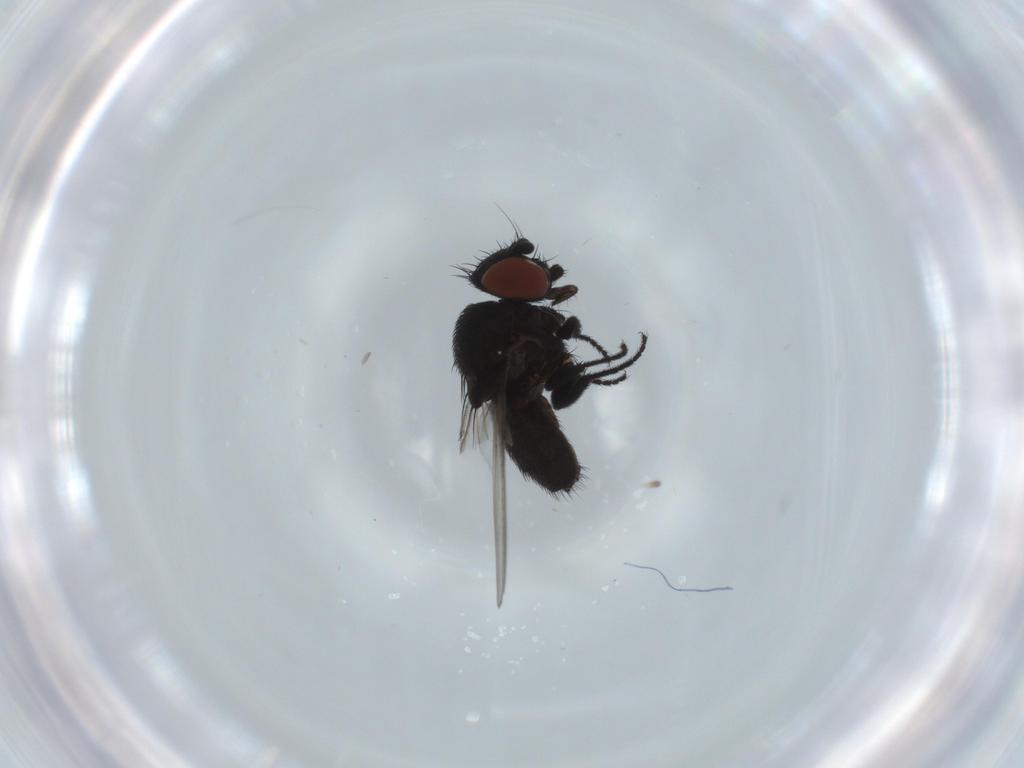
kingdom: Animalia
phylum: Arthropoda
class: Insecta
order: Diptera
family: Milichiidae
